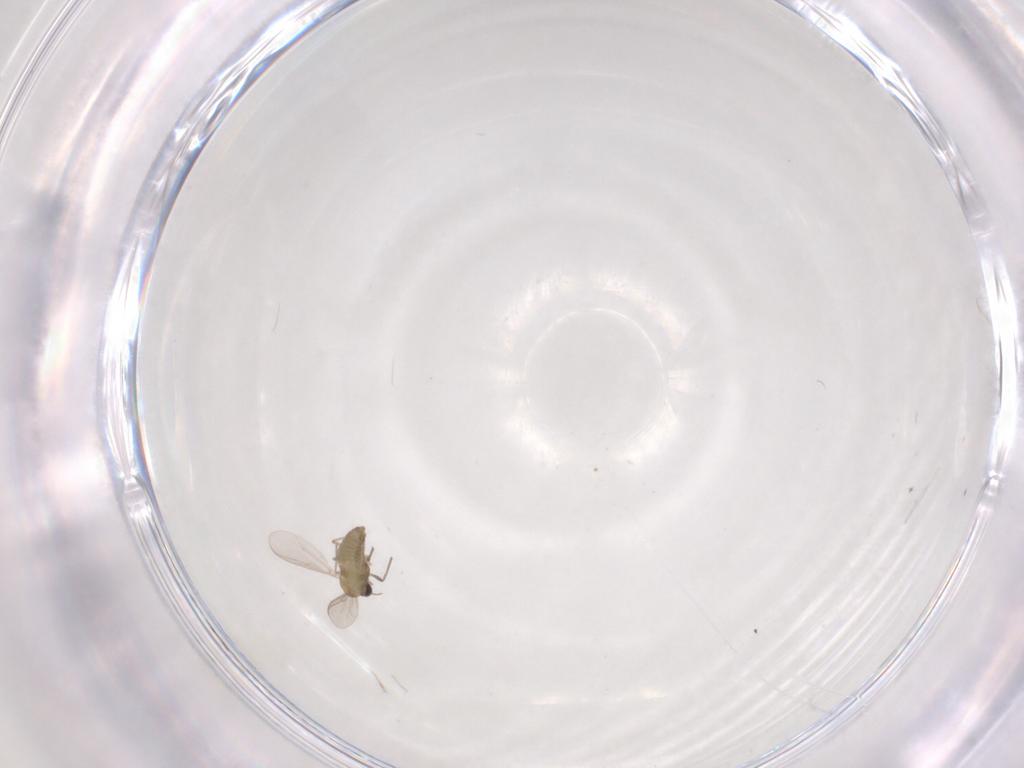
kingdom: Animalia
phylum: Arthropoda
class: Insecta
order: Diptera
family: Chironomidae
